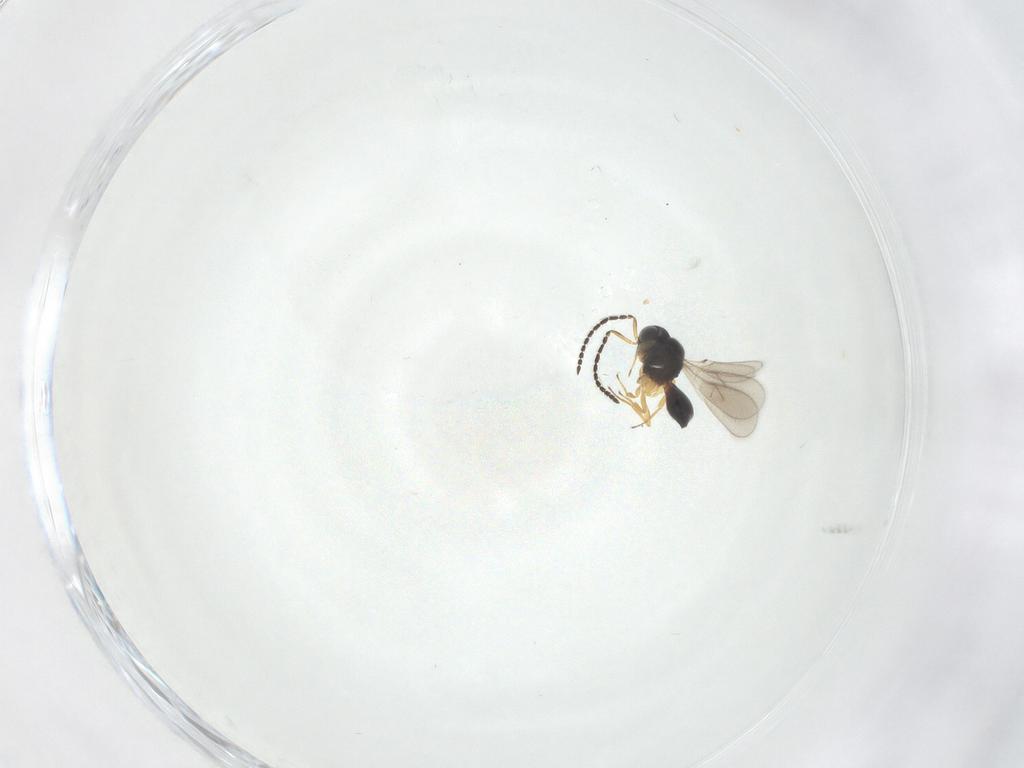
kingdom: Animalia
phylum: Arthropoda
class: Insecta
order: Hymenoptera
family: Scelionidae
